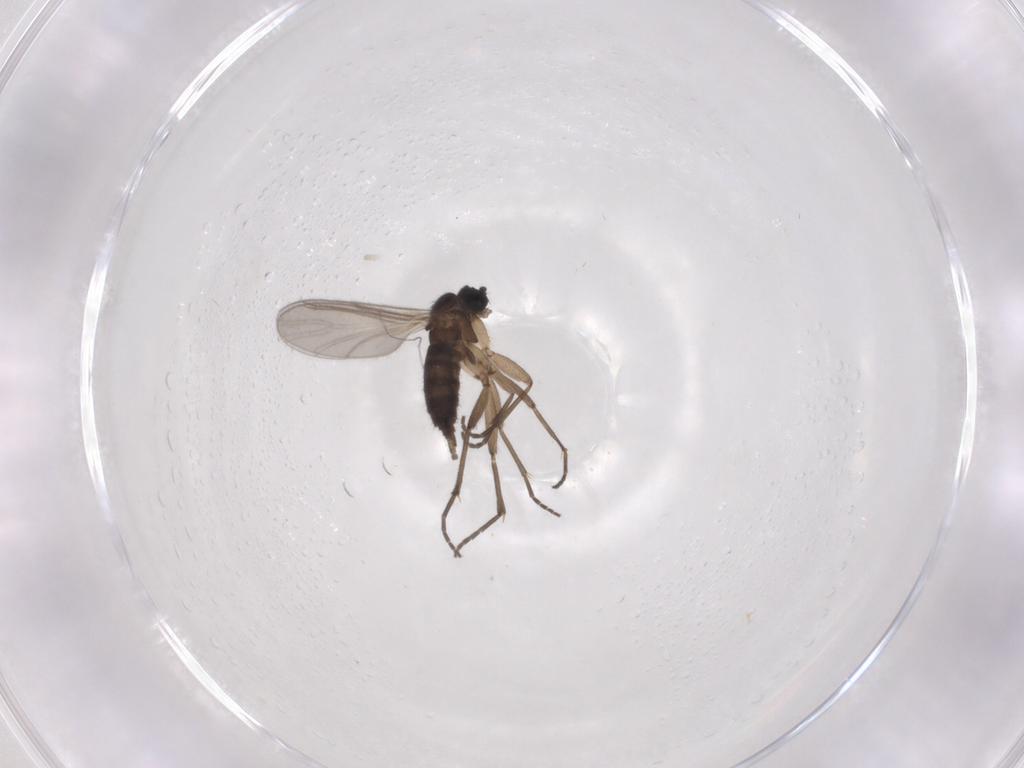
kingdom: Animalia
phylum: Arthropoda
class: Insecta
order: Diptera
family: Sciaridae
